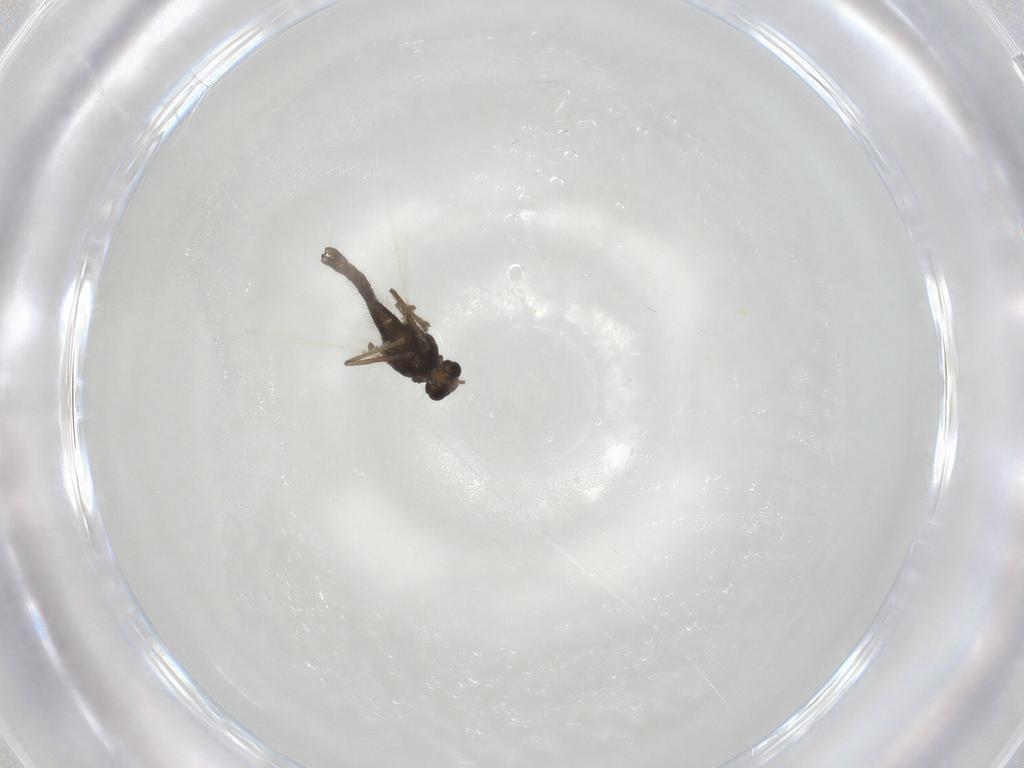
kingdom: Animalia
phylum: Arthropoda
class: Insecta
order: Diptera
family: Chironomidae
